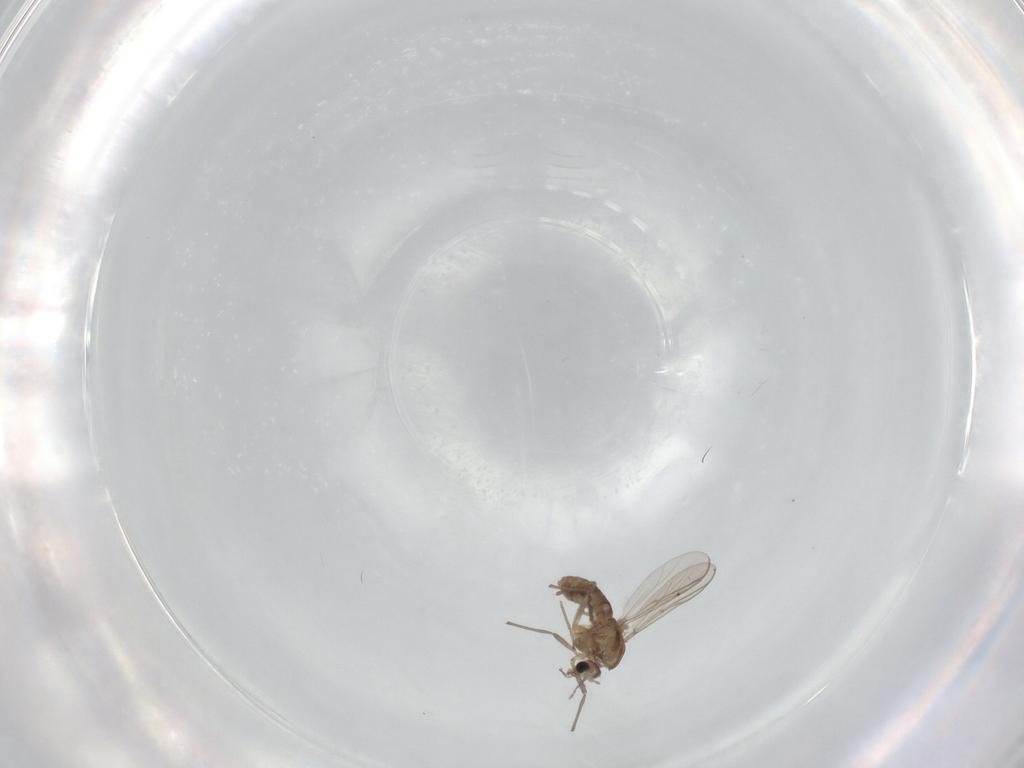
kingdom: Animalia
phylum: Arthropoda
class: Insecta
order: Diptera
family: Chironomidae
